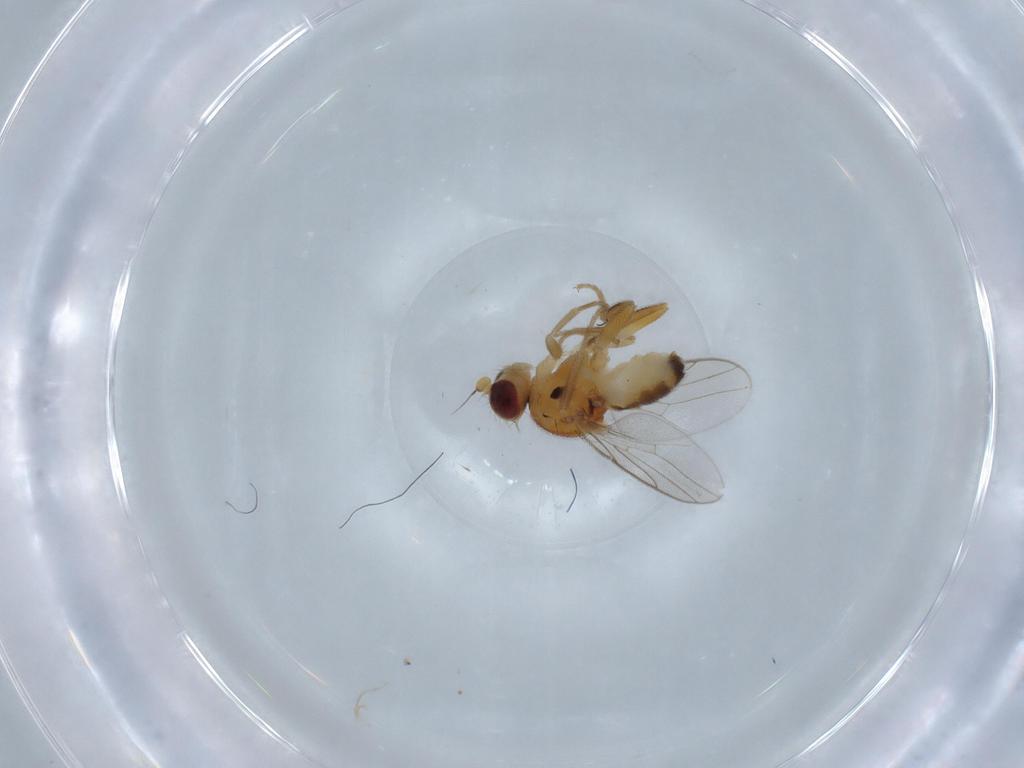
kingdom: Animalia
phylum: Arthropoda
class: Insecta
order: Diptera
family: Chloropidae
